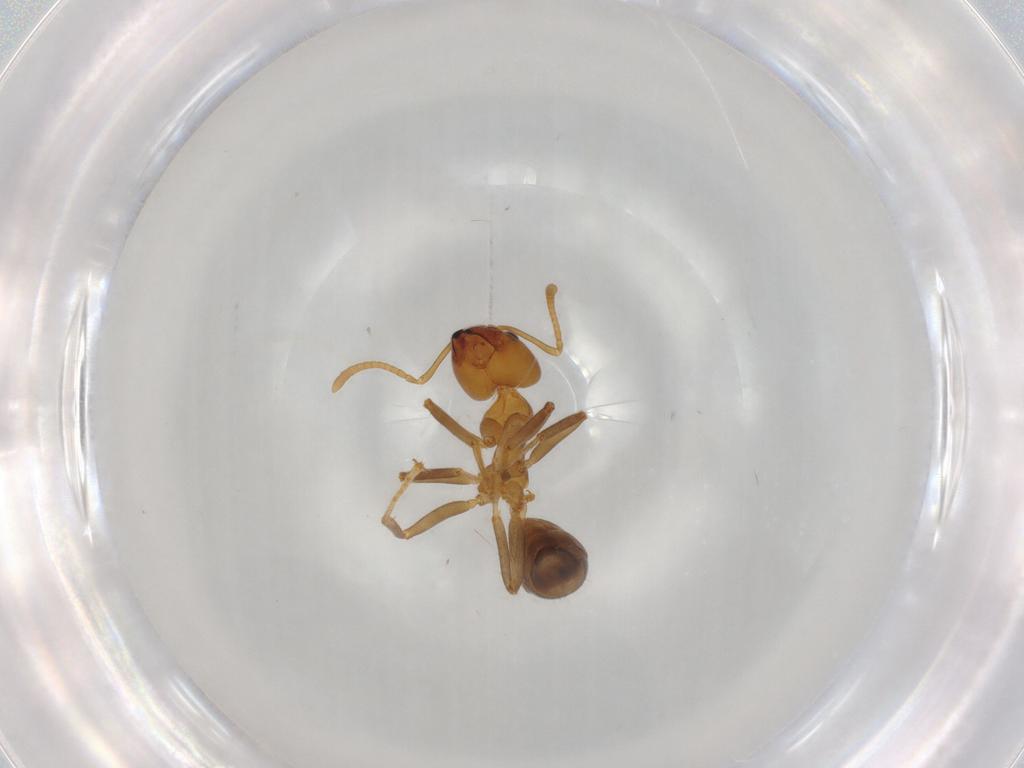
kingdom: Animalia
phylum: Arthropoda
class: Insecta
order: Hymenoptera
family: Formicidae
